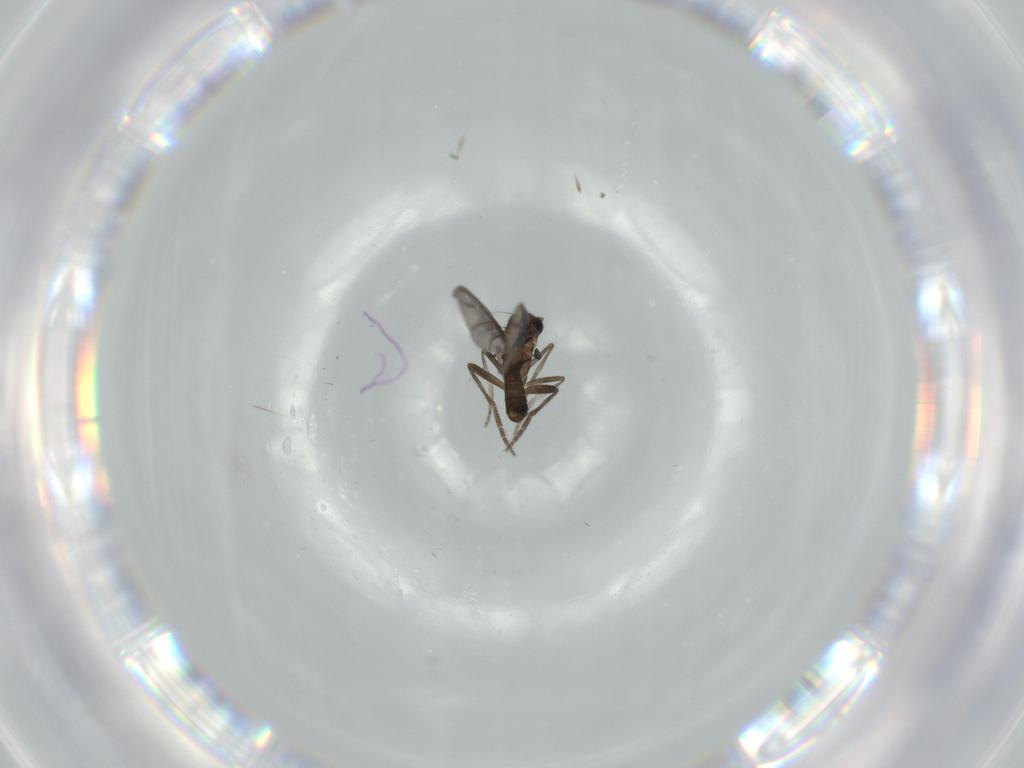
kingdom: Animalia
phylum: Arthropoda
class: Insecta
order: Diptera
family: Phoridae
